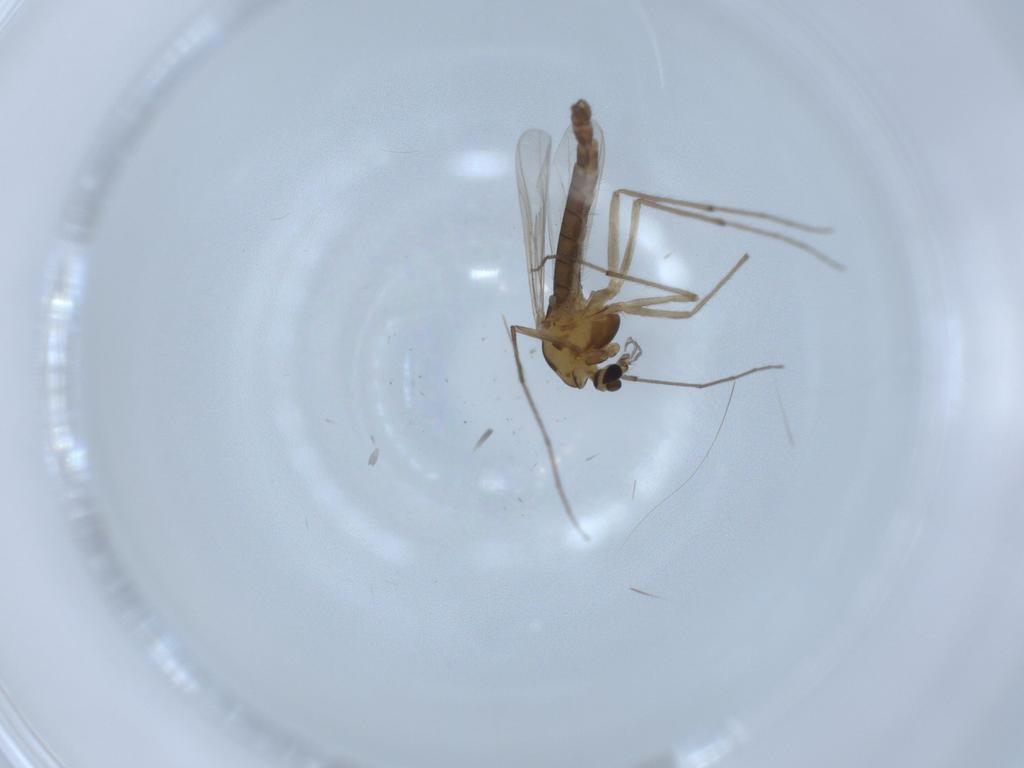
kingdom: Animalia
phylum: Arthropoda
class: Insecta
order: Diptera
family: Chironomidae
